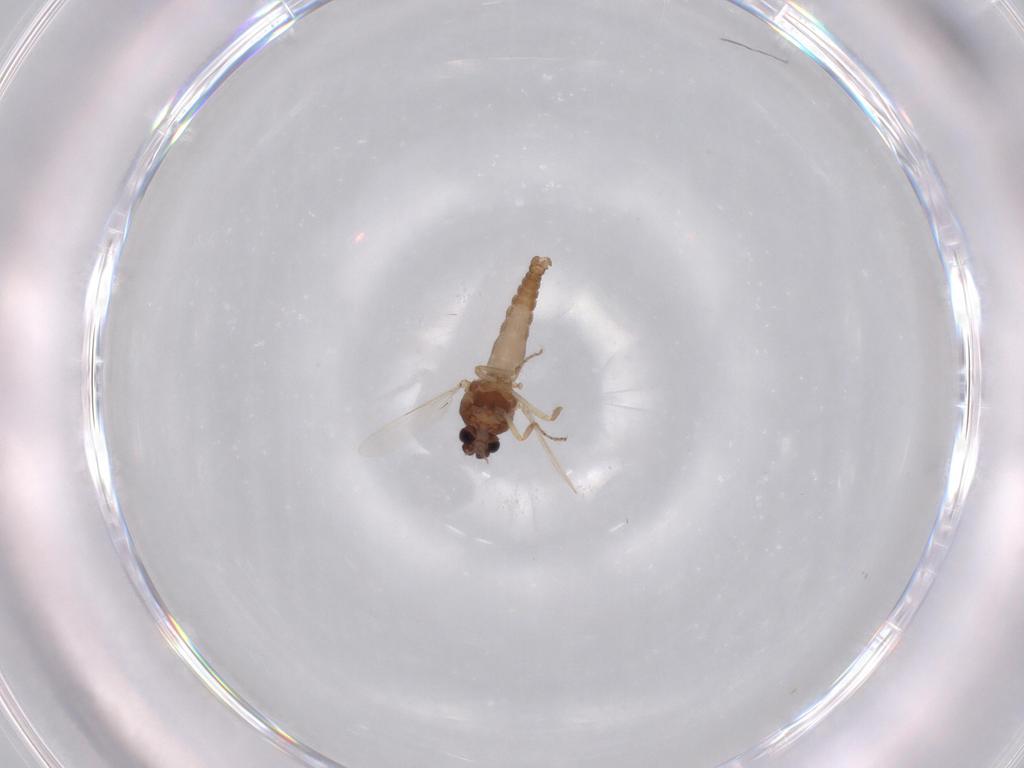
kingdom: Animalia
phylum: Arthropoda
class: Insecta
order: Diptera
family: Ceratopogonidae
